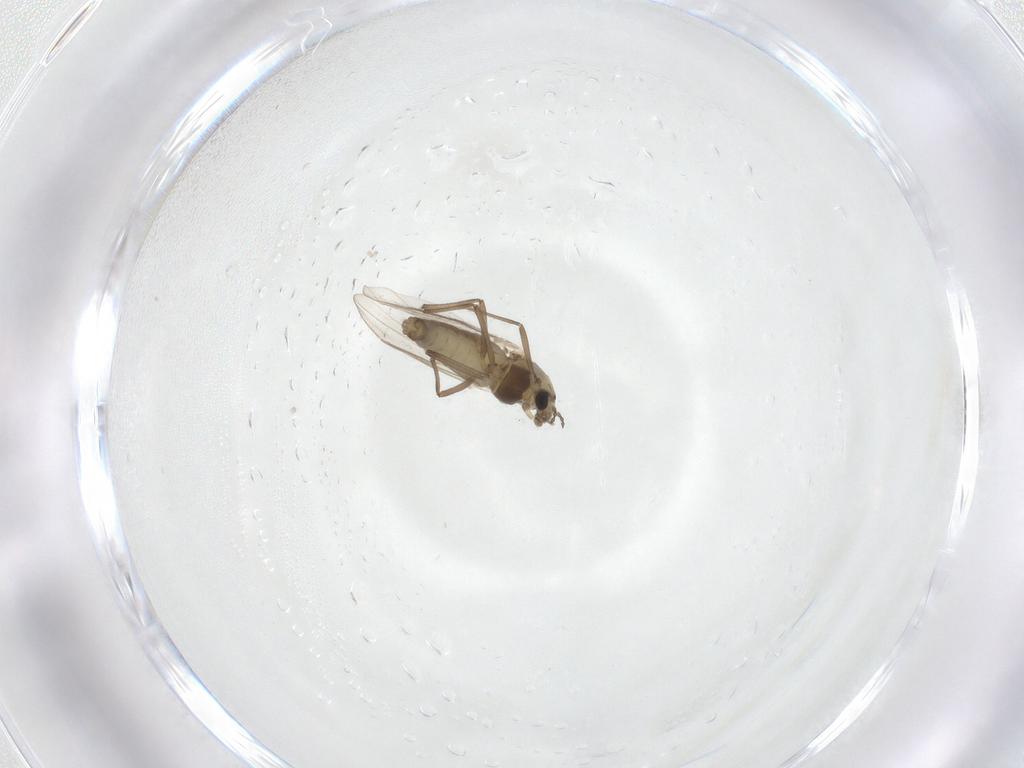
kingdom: Animalia
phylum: Arthropoda
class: Insecta
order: Diptera
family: Chironomidae
